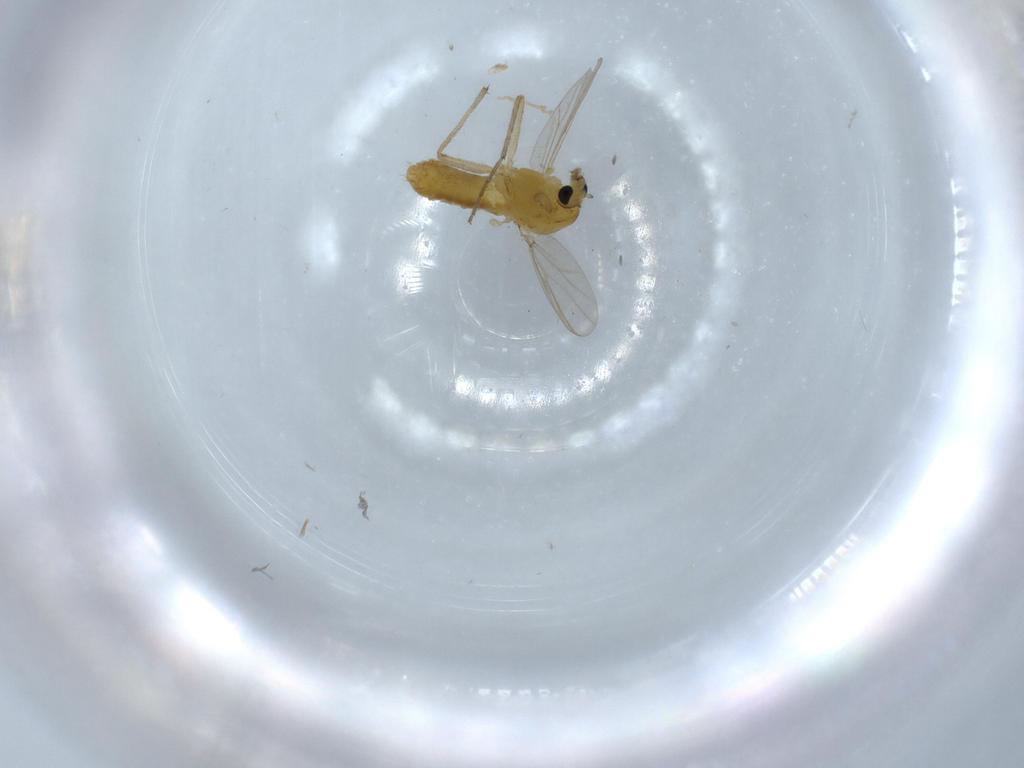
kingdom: Animalia
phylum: Arthropoda
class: Insecta
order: Diptera
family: Chironomidae
